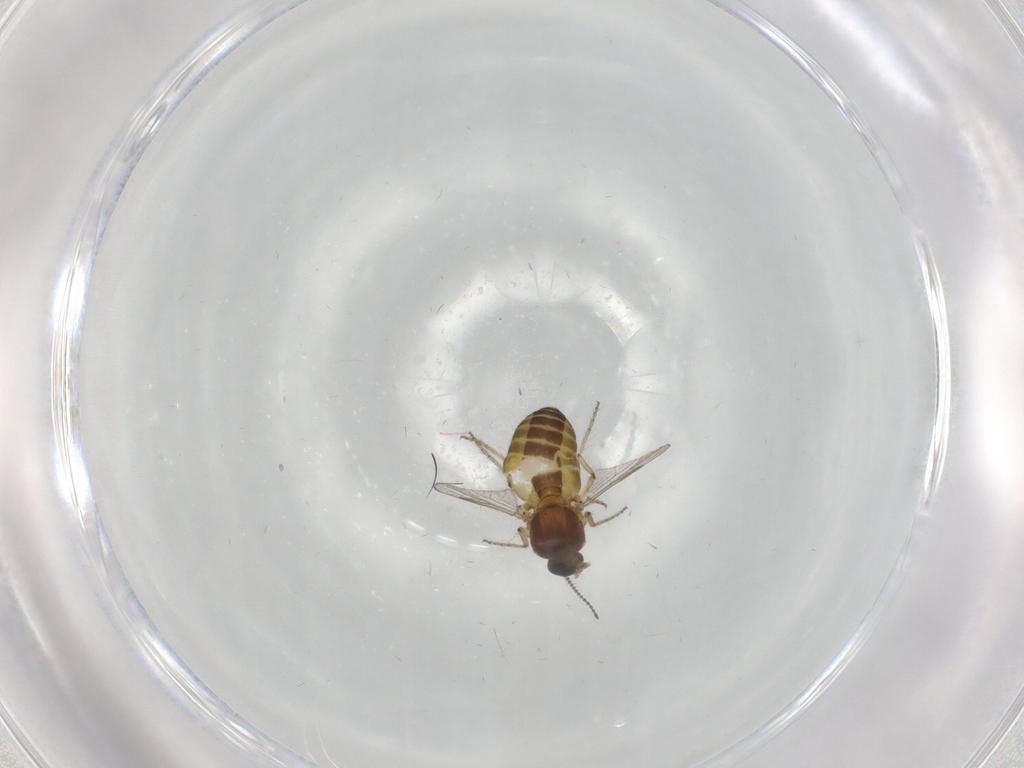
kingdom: Animalia
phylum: Arthropoda
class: Insecta
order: Diptera
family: Ceratopogonidae
